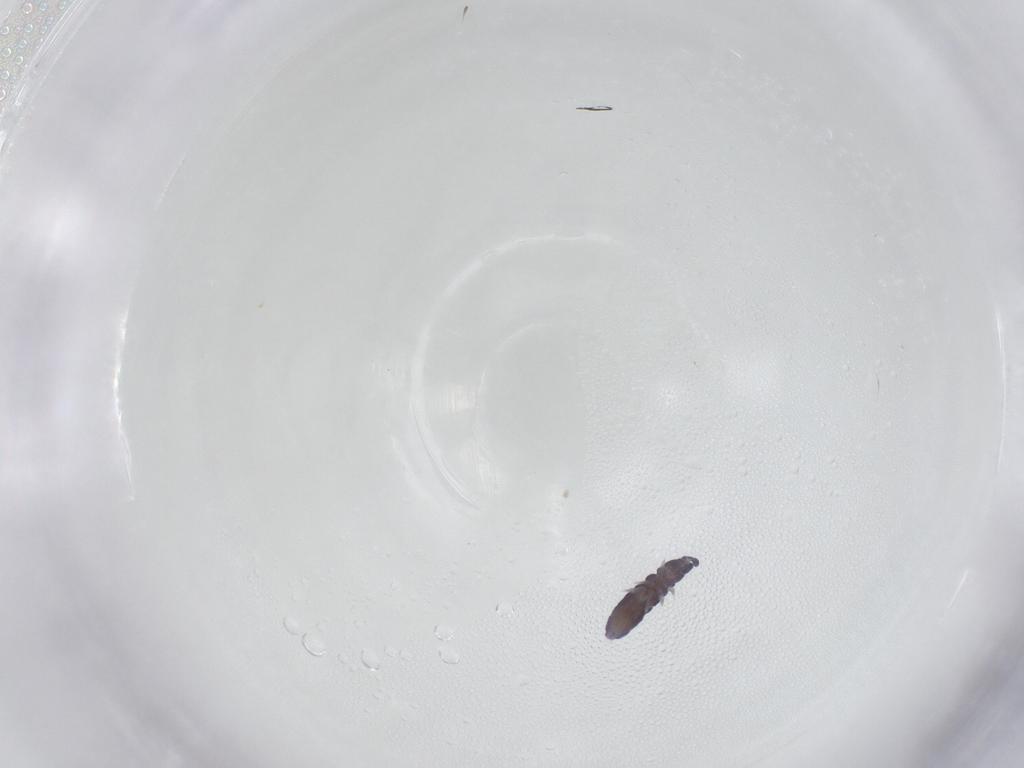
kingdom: Animalia
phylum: Arthropoda
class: Collembola
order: Poduromorpha
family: Neanuridae
